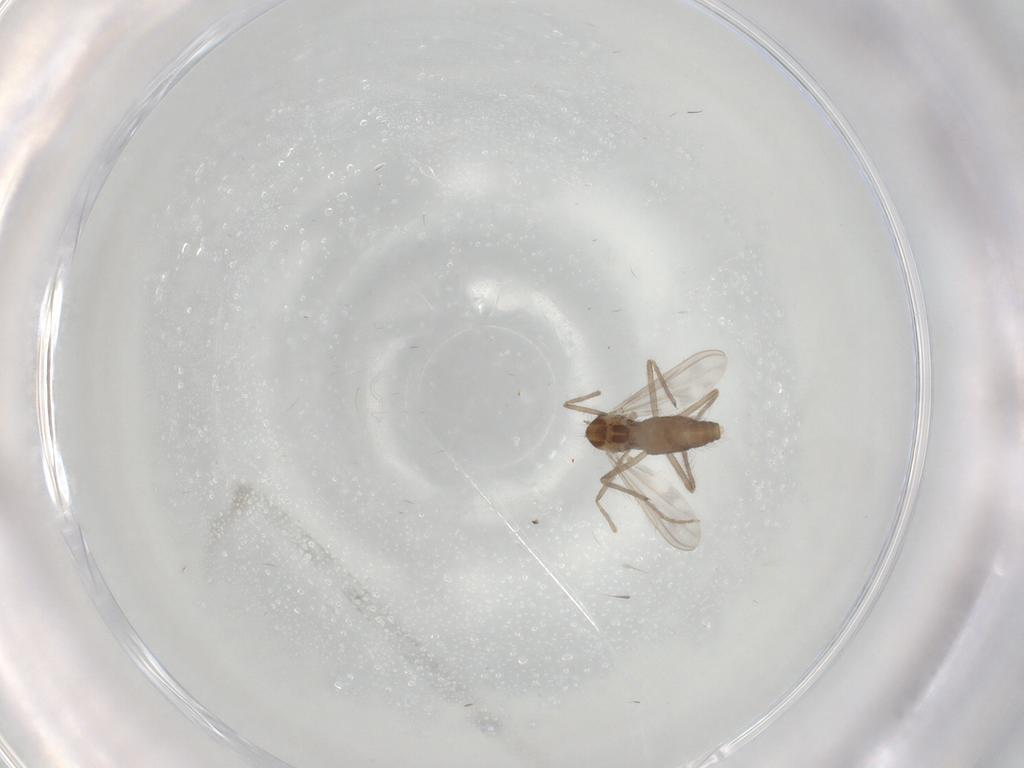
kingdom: Animalia
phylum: Arthropoda
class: Insecta
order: Diptera
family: Chironomidae
